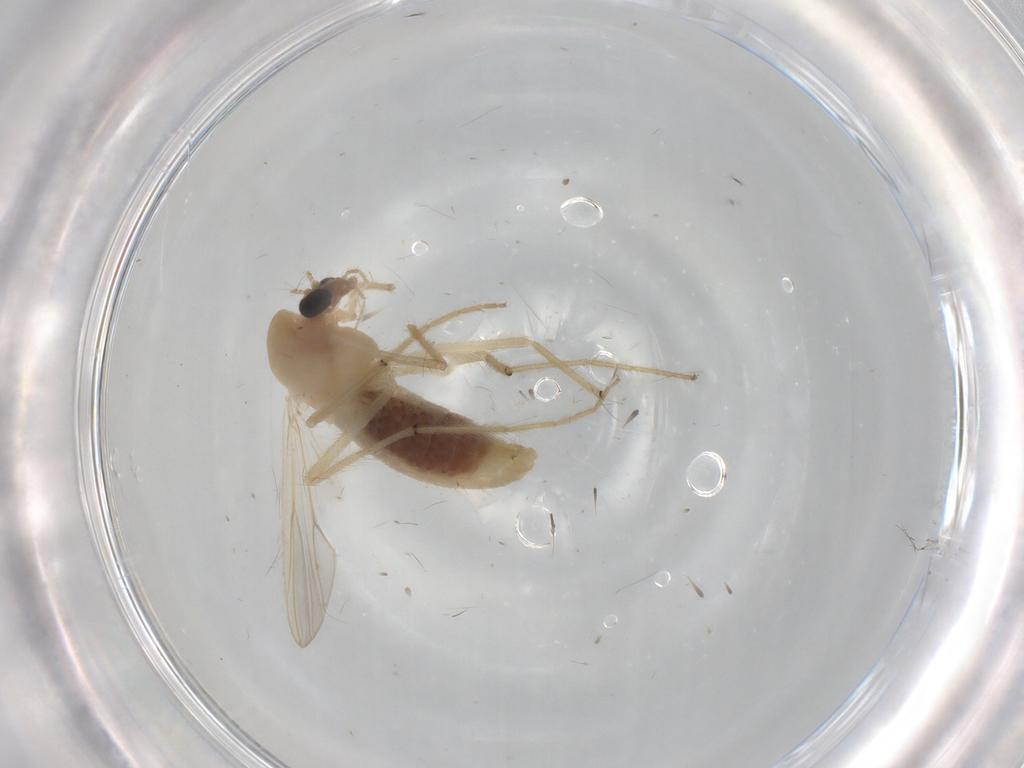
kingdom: Animalia
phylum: Arthropoda
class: Insecta
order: Diptera
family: Chironomidae
